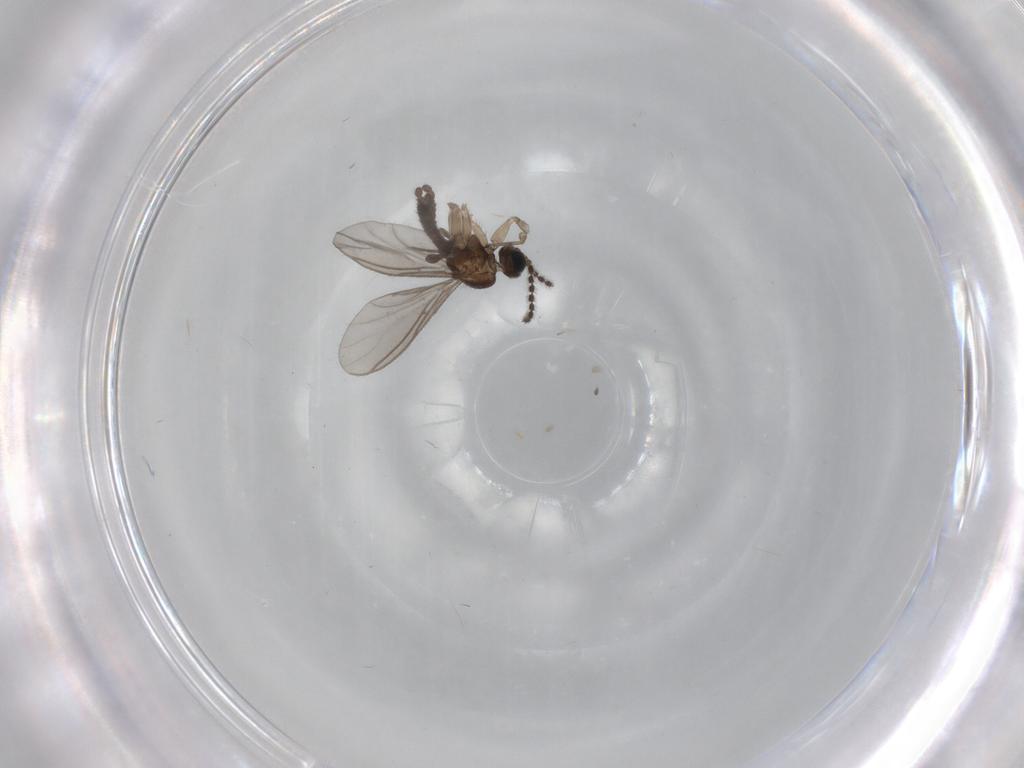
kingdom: Animalia
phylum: Arthropoda
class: Insecta
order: Diptera
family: Sciaridae
